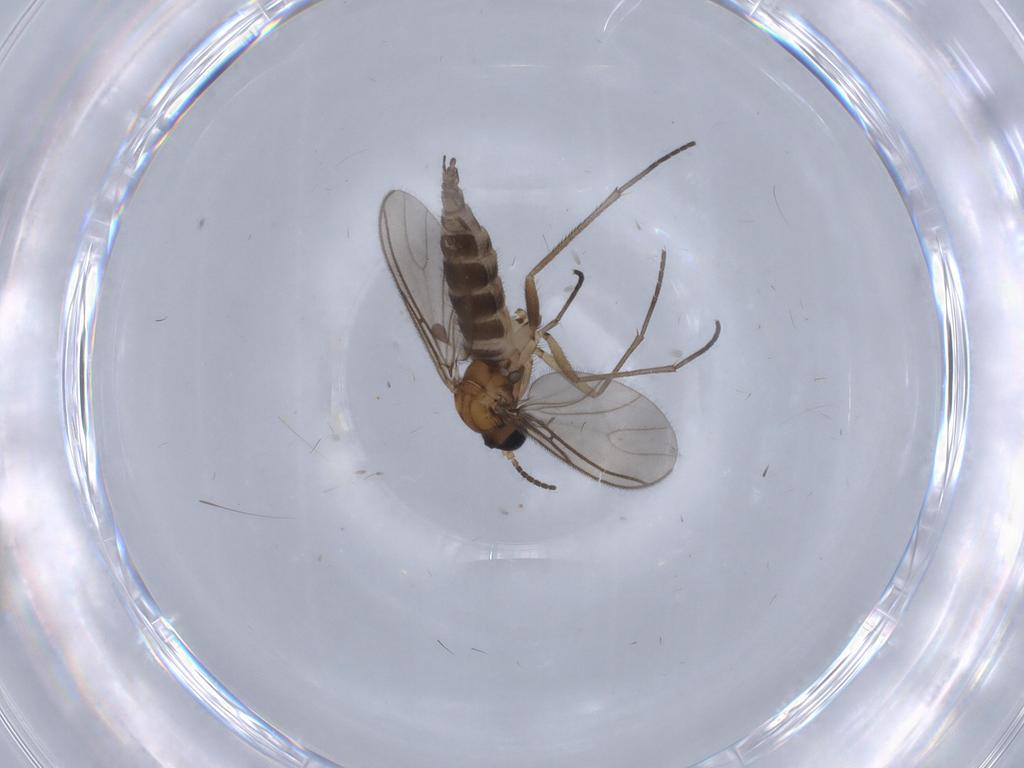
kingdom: Animalia
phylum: Arthropoda
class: Insecta
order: Diptera
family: Sciaridae
